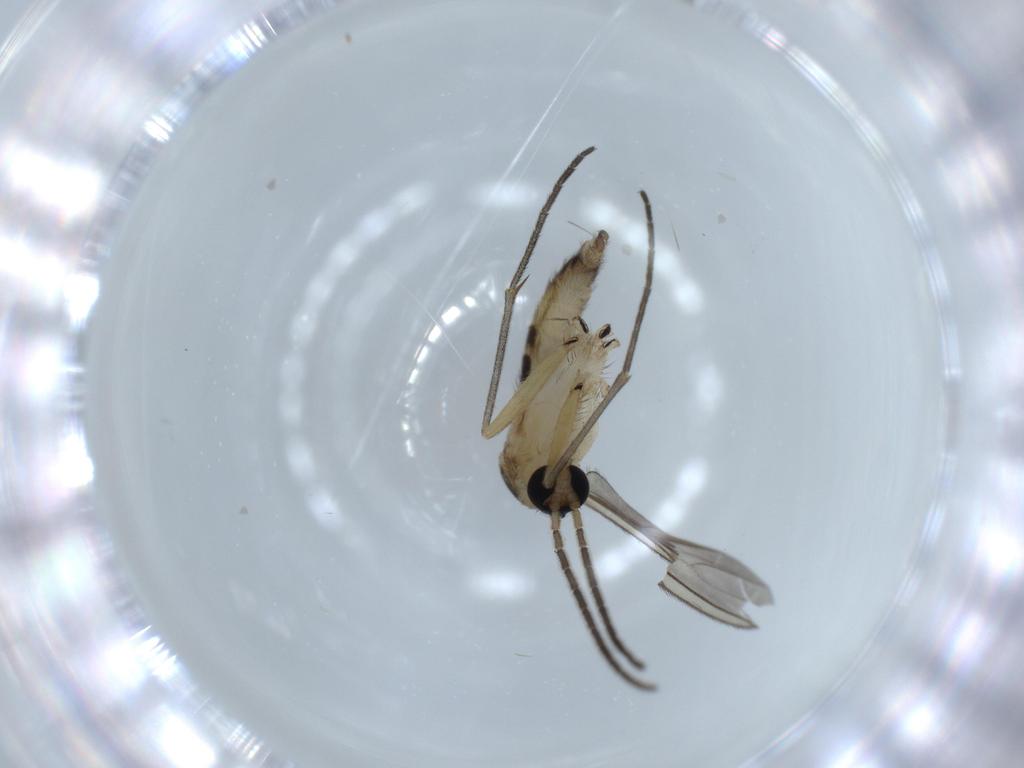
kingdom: Animalia
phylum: Arthropoda
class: Insecta
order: Diptera
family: Sciaridae
